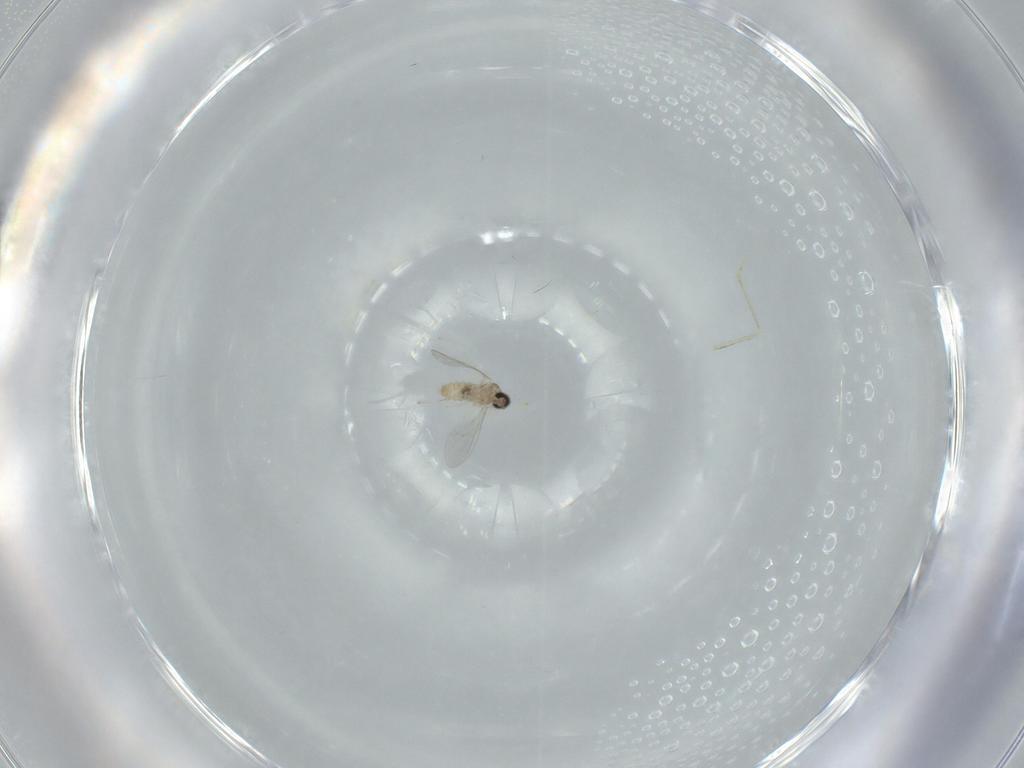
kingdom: Animalia
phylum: Arthropoda
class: Insecta
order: Diptera
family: Cecidomyiidae
